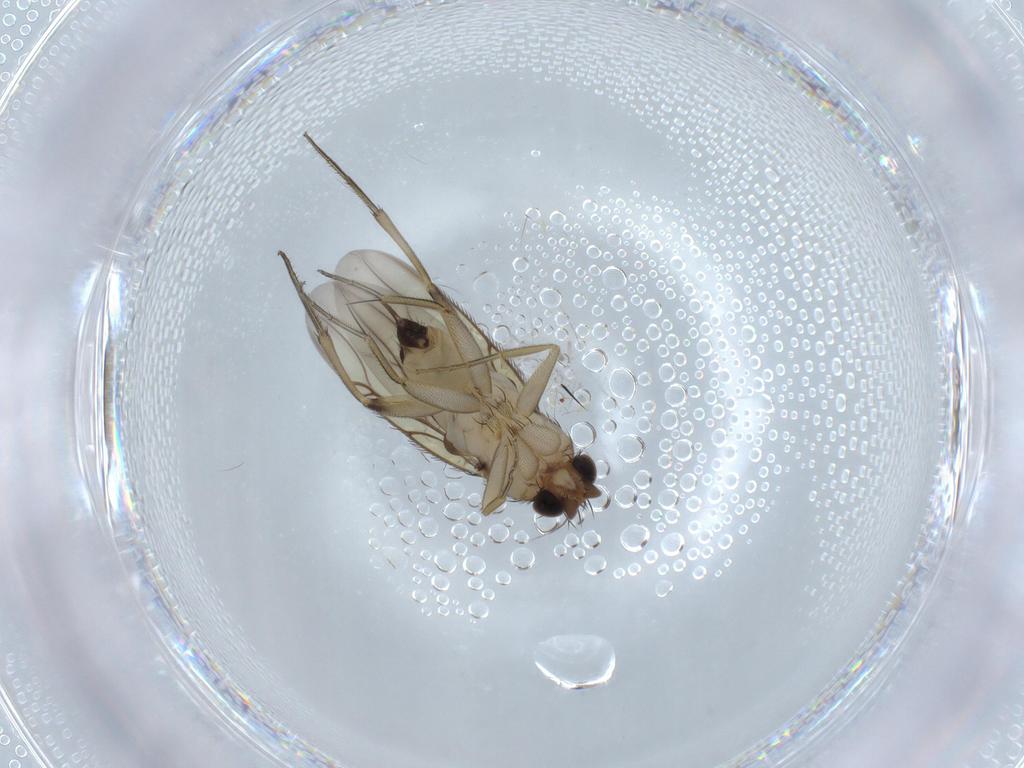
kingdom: Animalia
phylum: Arthropoda
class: Insecta
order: Diptera
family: Phoridae
